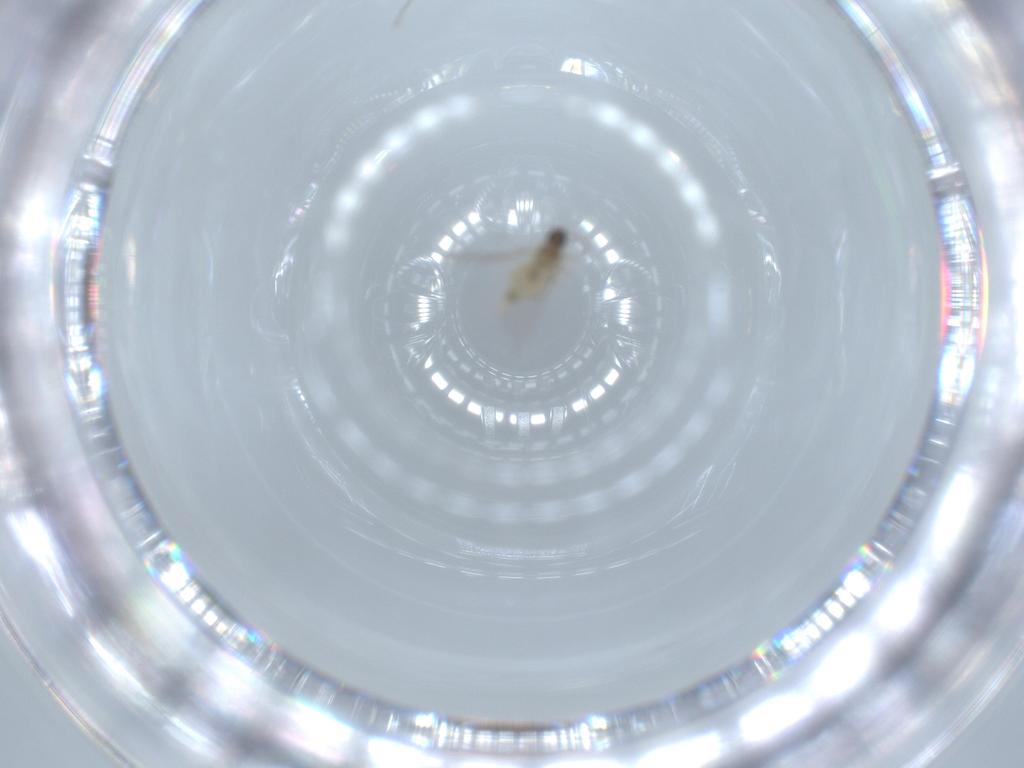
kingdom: Animalia
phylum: Arthropoda
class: Insecta
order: Diptera
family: Cecidomyiidae
